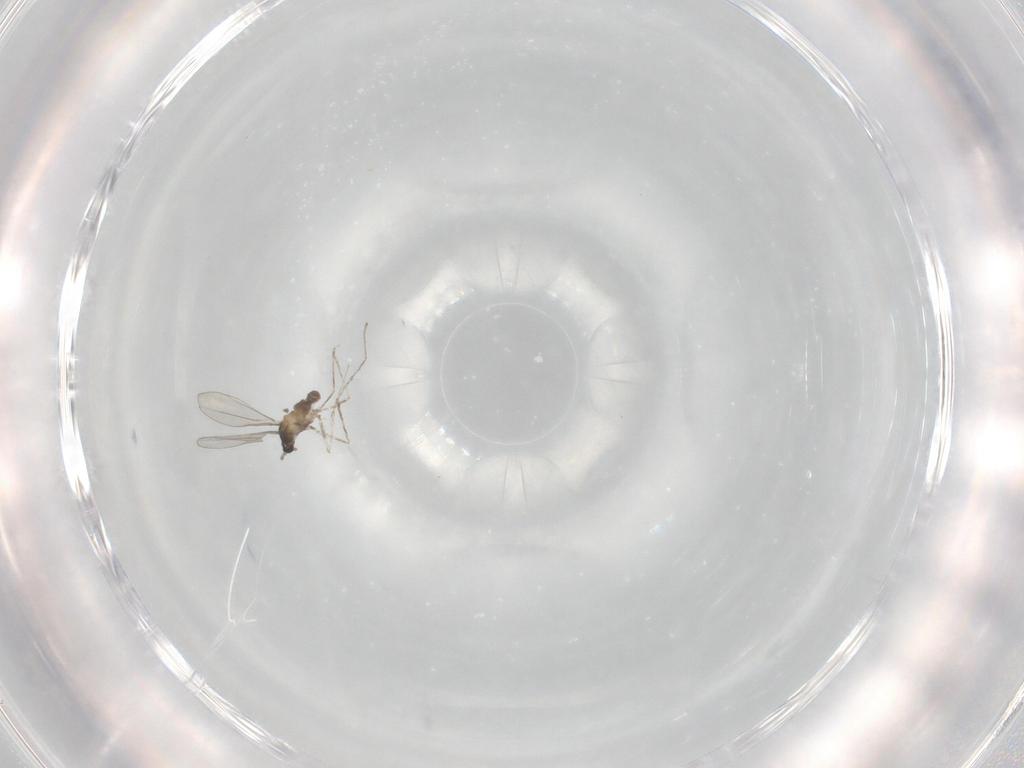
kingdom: Animalia
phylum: Arthropoda
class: Insecta
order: Diptera
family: Cecidomyiidae
